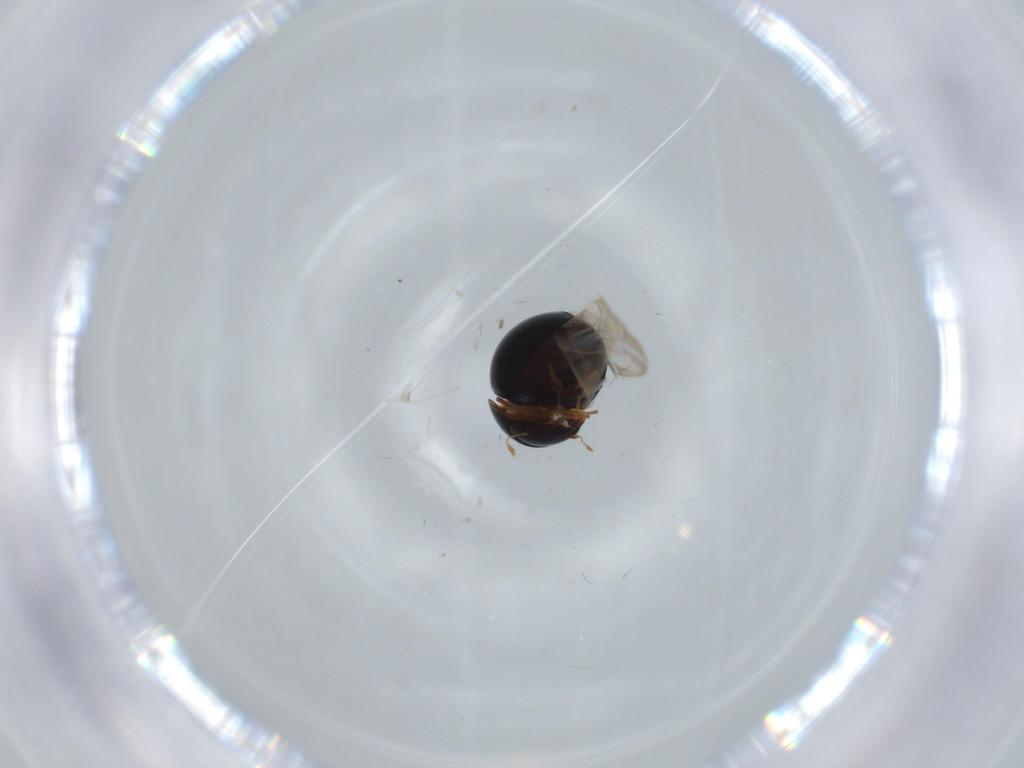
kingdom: Animalia
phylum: Arthropoda
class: Insecta
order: Coleoptera
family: Clambidae
